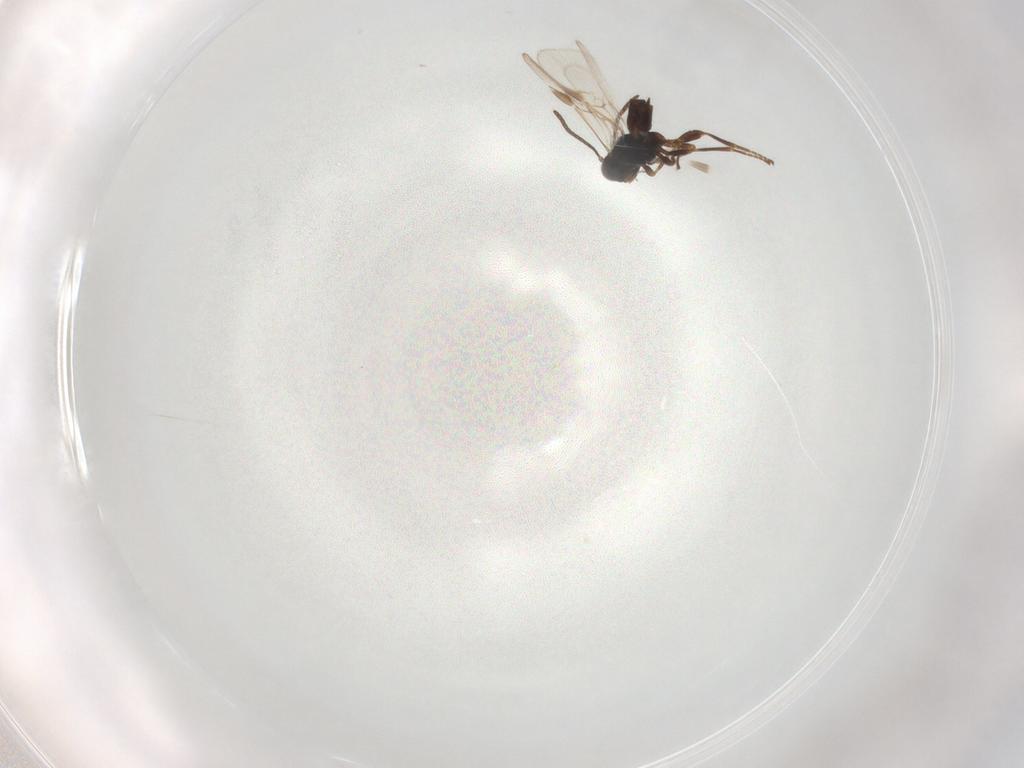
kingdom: Animalia
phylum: Arthropoda
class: Insecta
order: Hymenoptera
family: Braconidae
